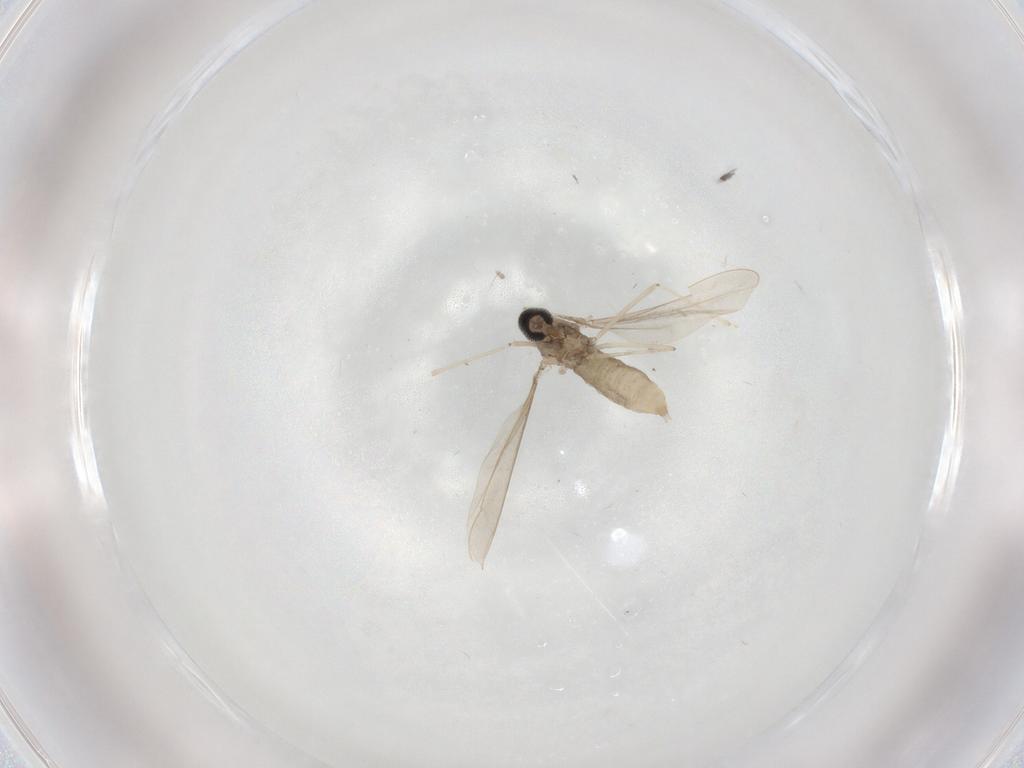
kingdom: Animalia
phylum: Arthropoda
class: Insecta
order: Diptera
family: Cecidomyiidae
